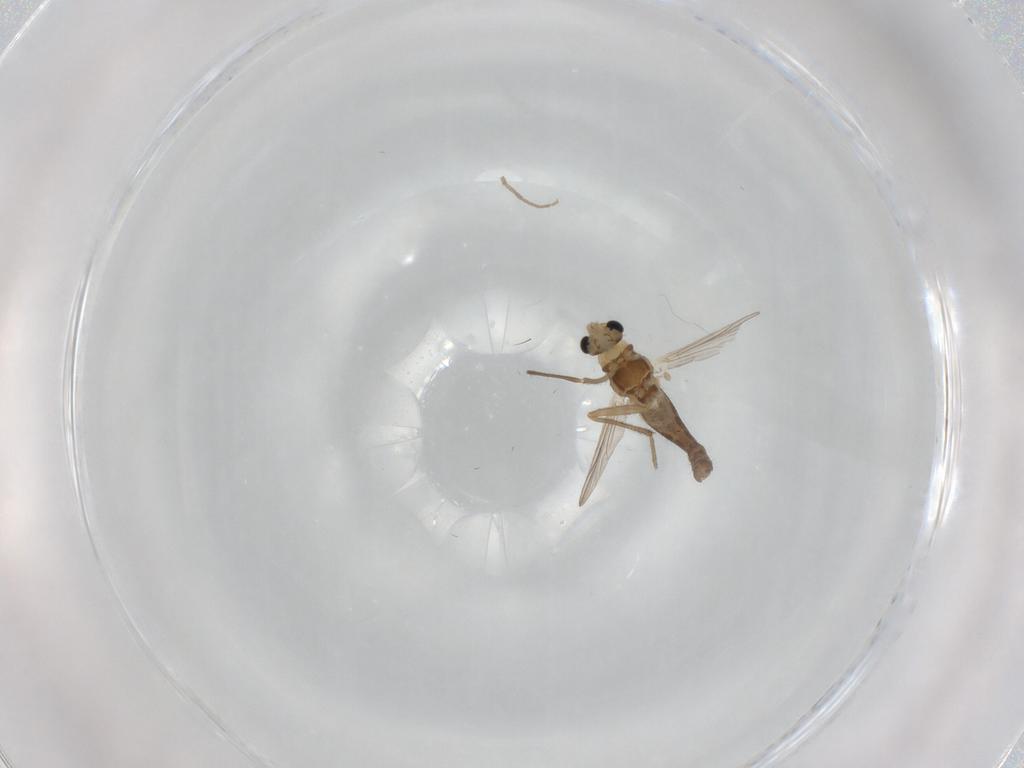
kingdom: Animalia
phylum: Arthropoda
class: Insecta
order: Diptera
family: Chironomidae
